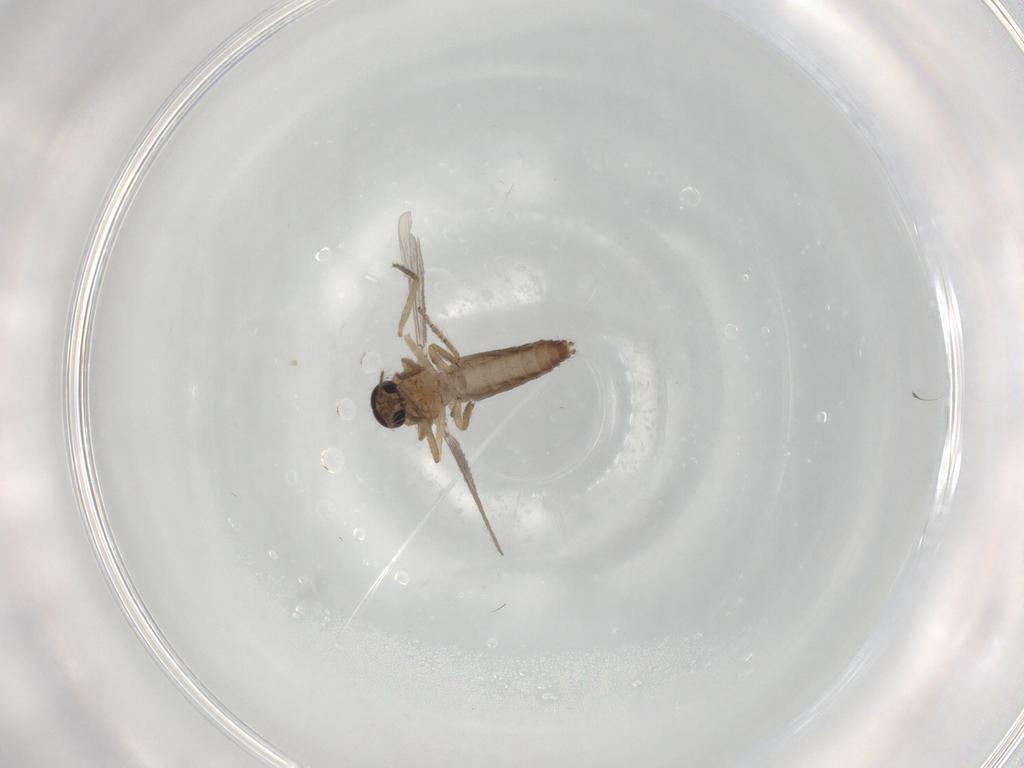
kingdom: Animalia
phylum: Arthropoda
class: Insecta
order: Diptera
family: Ceratopogonidae
